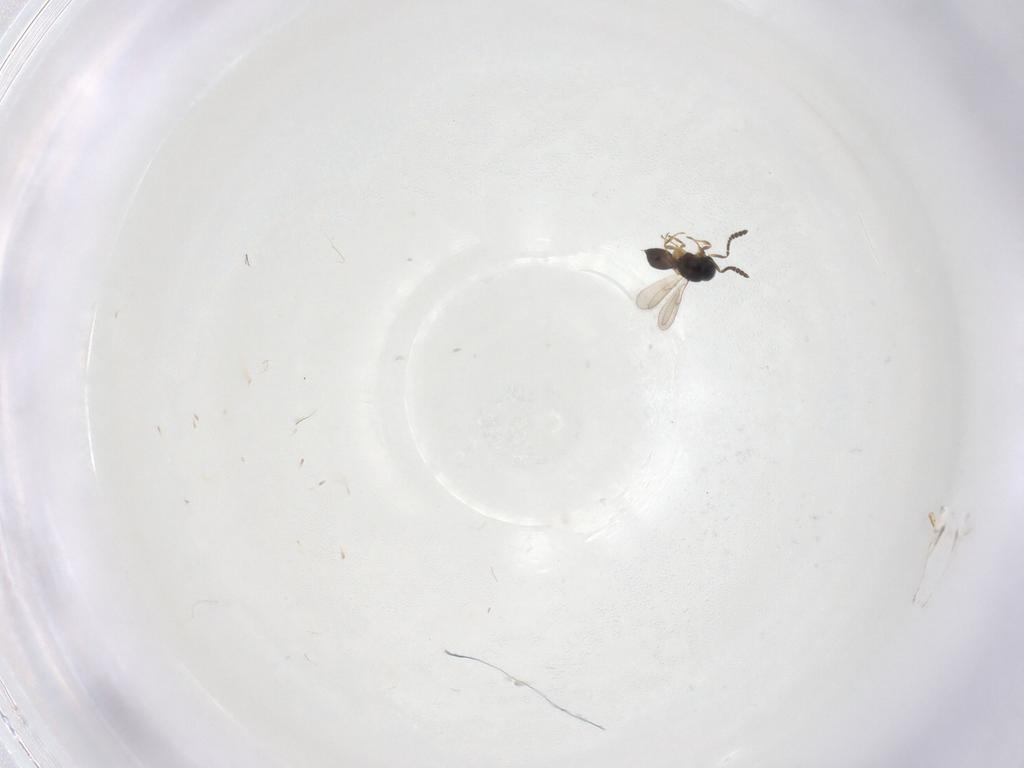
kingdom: Animalia
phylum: Arthropoda
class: Insecta
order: Hymenoptera
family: Scelionidae
